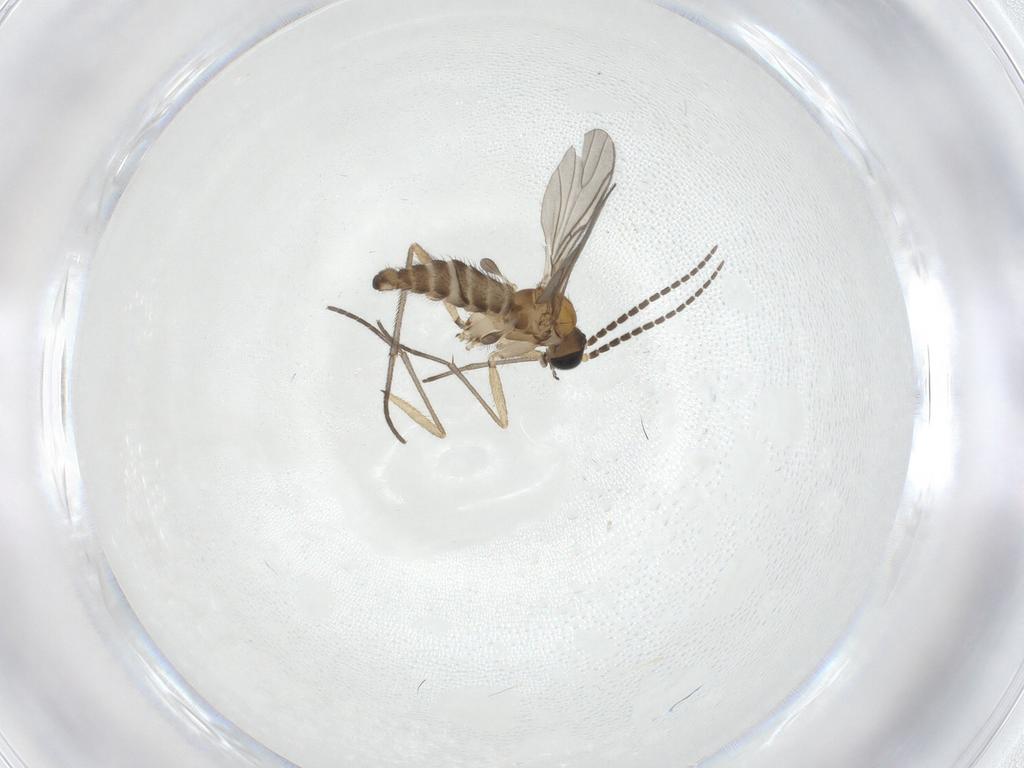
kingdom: Animalia
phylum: Arthropoda
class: Insecta
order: Diptera
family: Sciaridae
